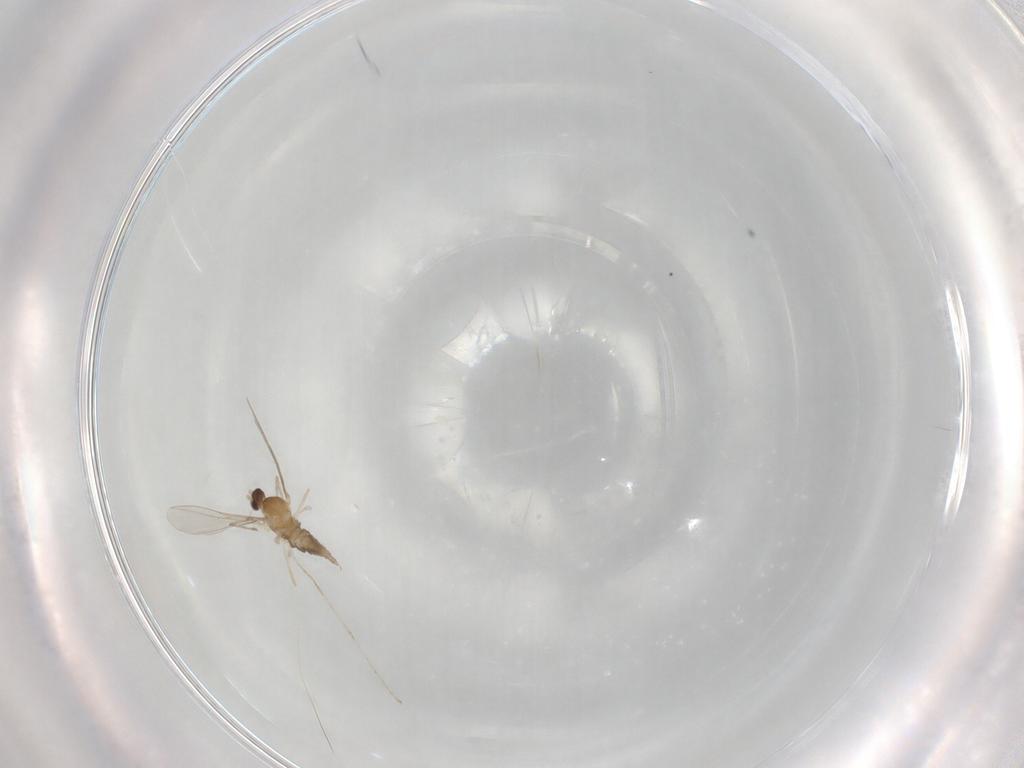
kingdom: Animalia
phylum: Arthropoda
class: Insecta
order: Diptera
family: Cecidomyiidae
